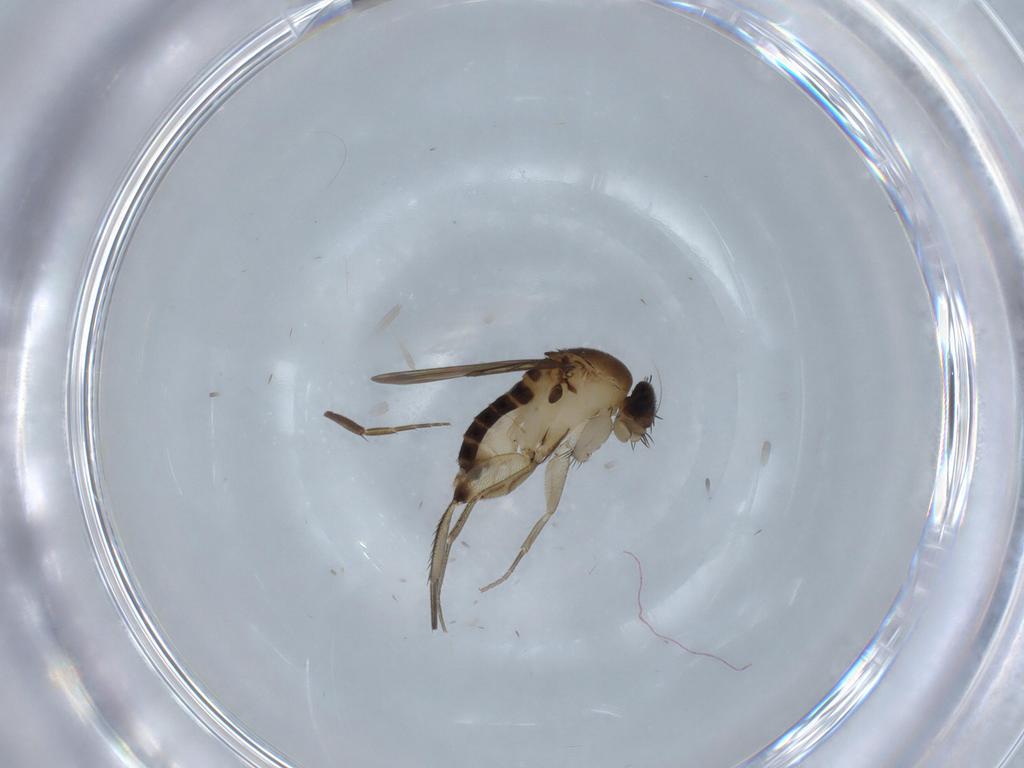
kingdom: Animalia
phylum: Arthropoda
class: Insecta
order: Diptera
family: Phoridae
